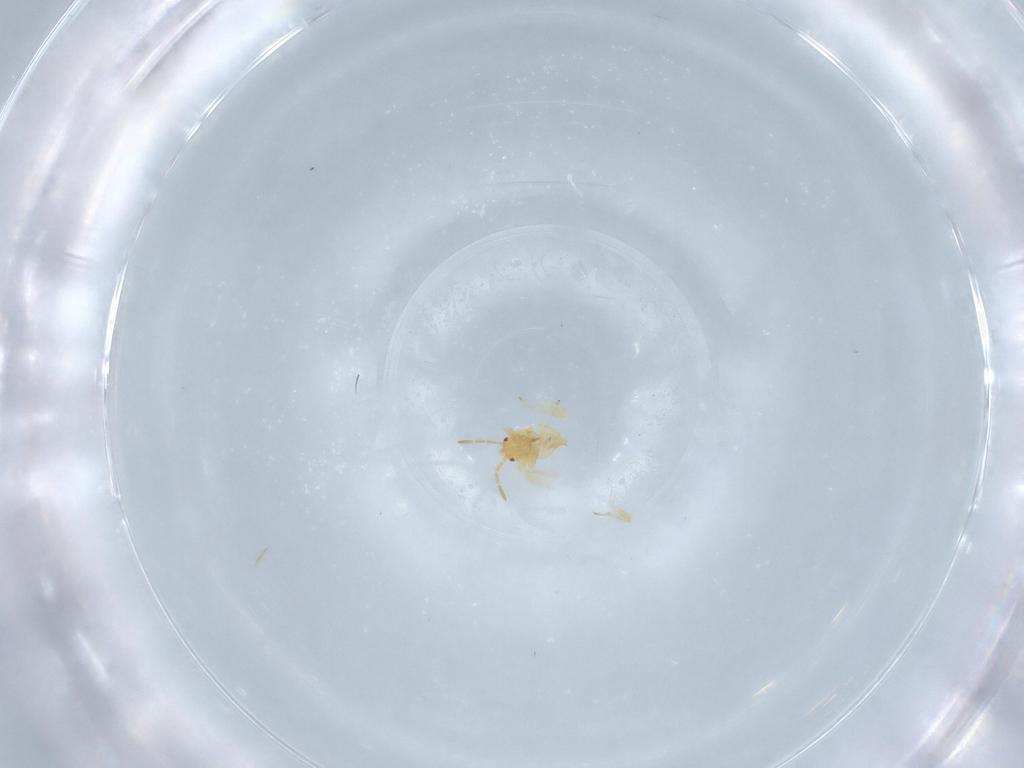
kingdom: Animalia
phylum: Arthropoda
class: Insecta
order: Hemiptera
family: Miridae
